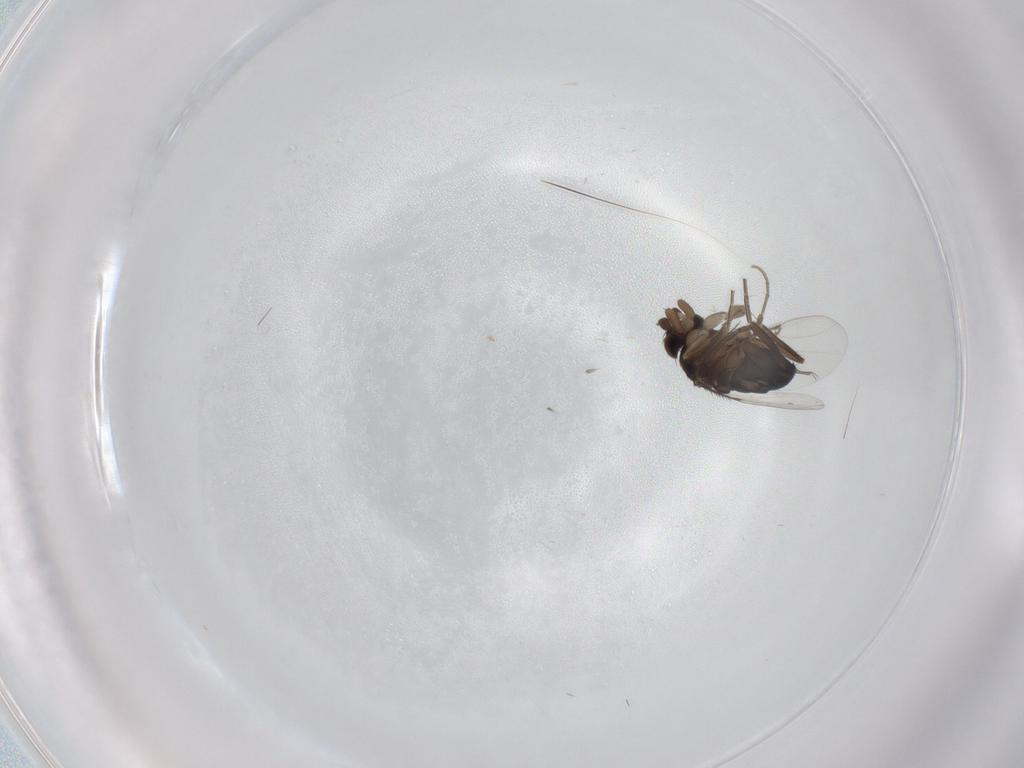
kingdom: Animalia
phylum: Arthropoda
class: Insecta
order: Diptera
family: Phoridae
